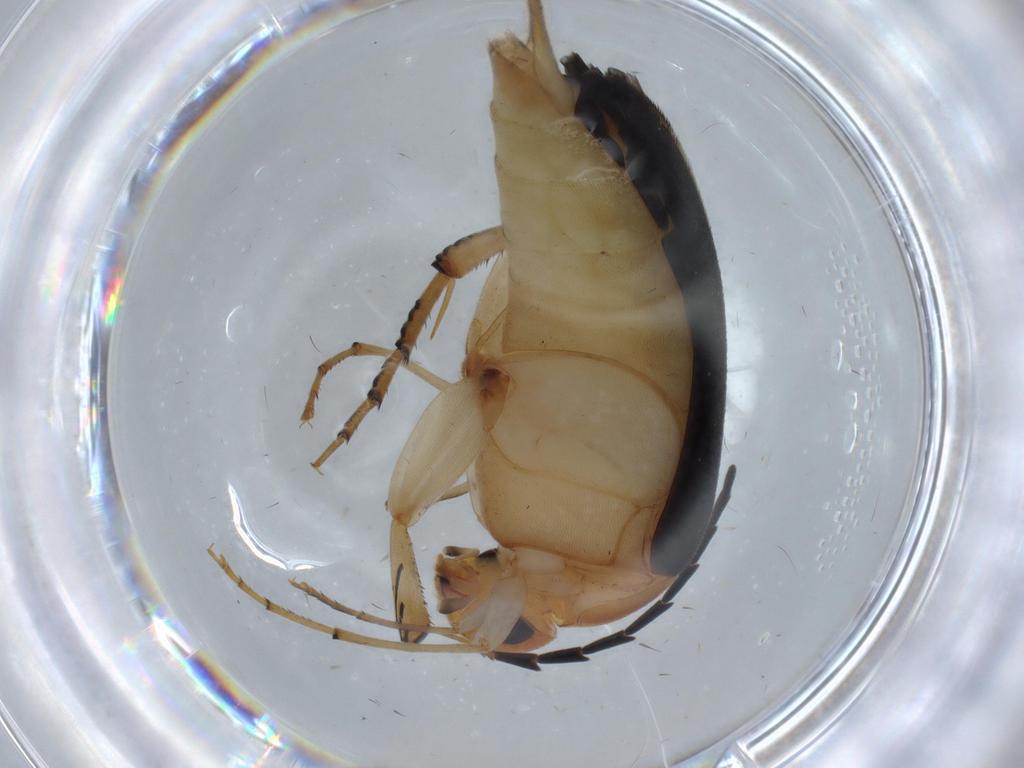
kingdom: Animalia
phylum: Arthropoda
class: Insecta
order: Coleoptera
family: Mordellidae
